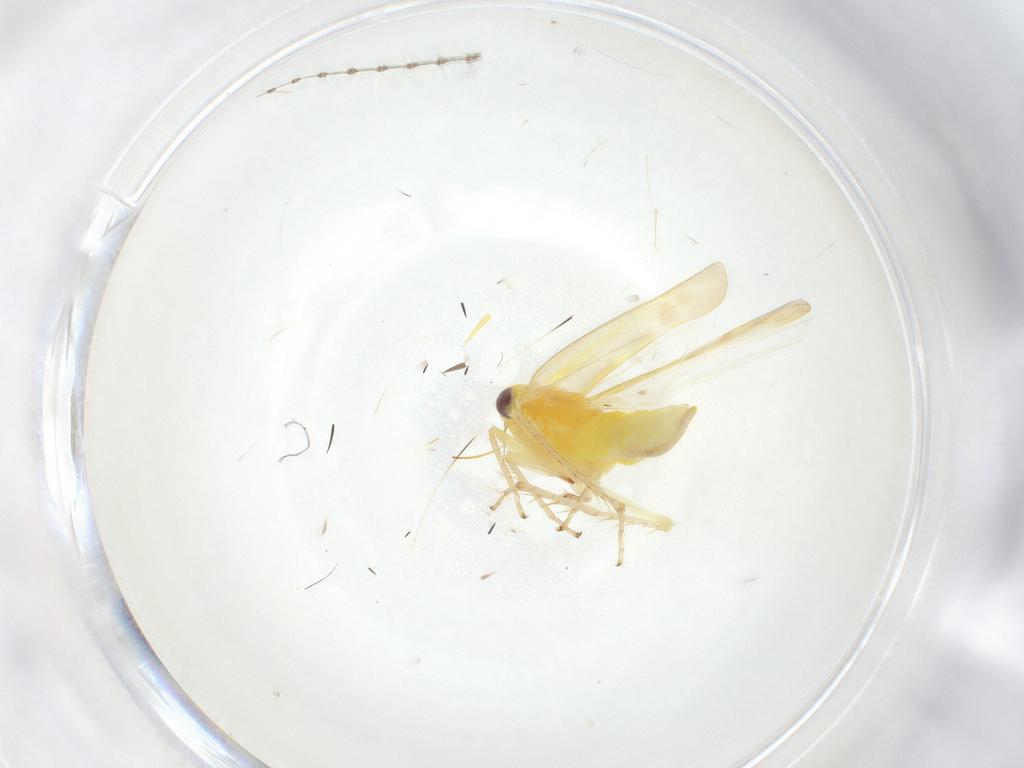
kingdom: Animalia
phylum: Arthropoda
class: Insecta
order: Hemiptera
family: Cicadellidae
